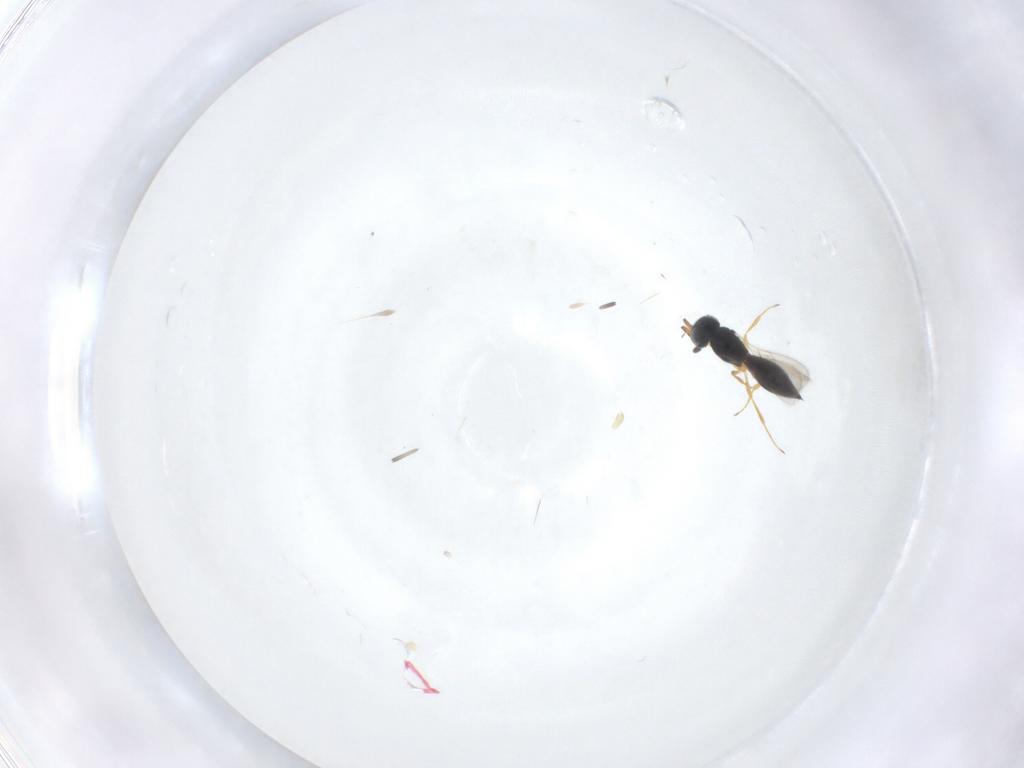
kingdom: Animalia
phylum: Arthropoda
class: Insecta
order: Hymenoptera
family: Scelionidae
